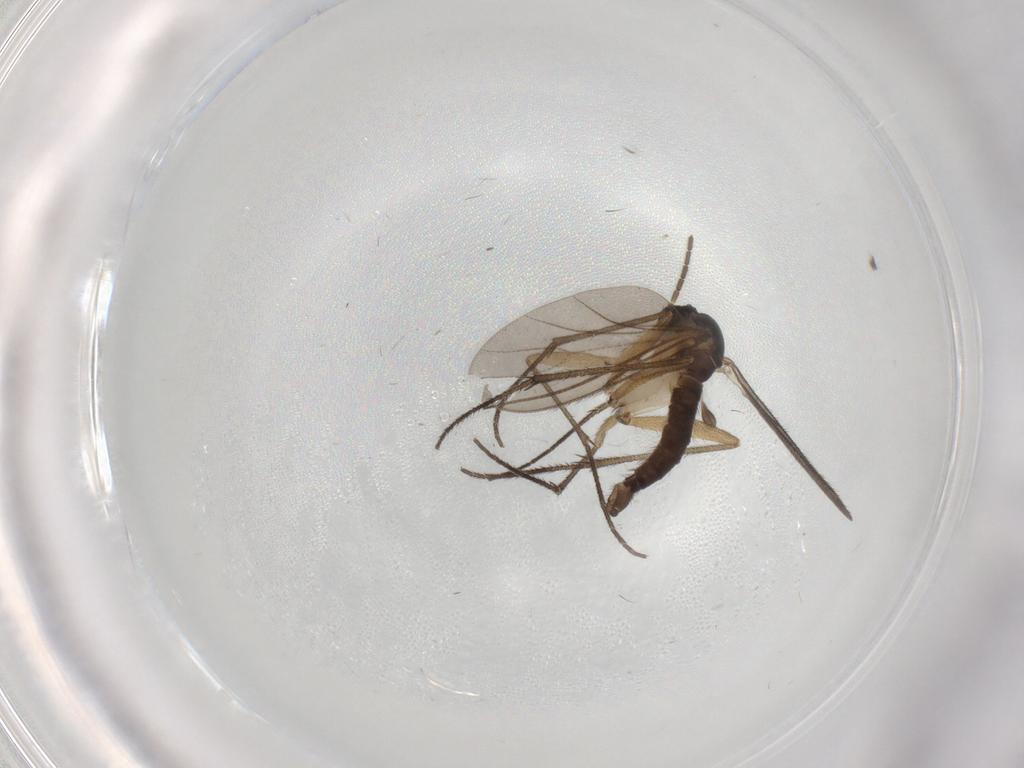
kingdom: Animalia
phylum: Arthropoda
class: Insecta
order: Diptera
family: Sciaridae
